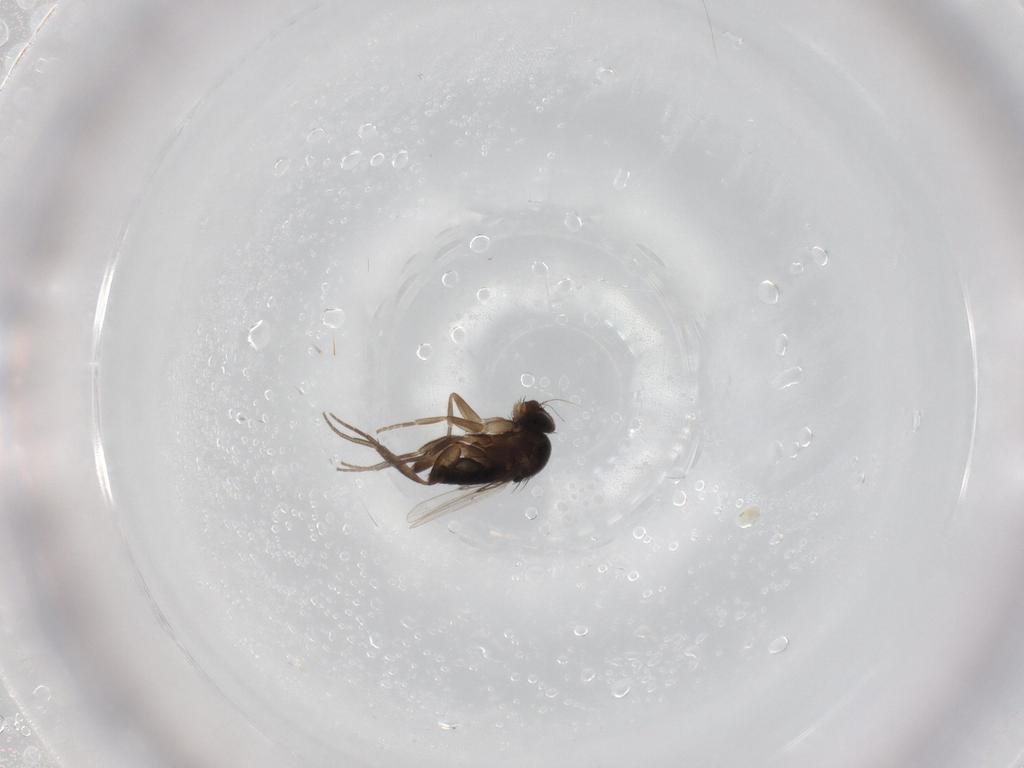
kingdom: Animalia
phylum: Arthropoda
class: Insecta
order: Diptera
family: Phoridae
